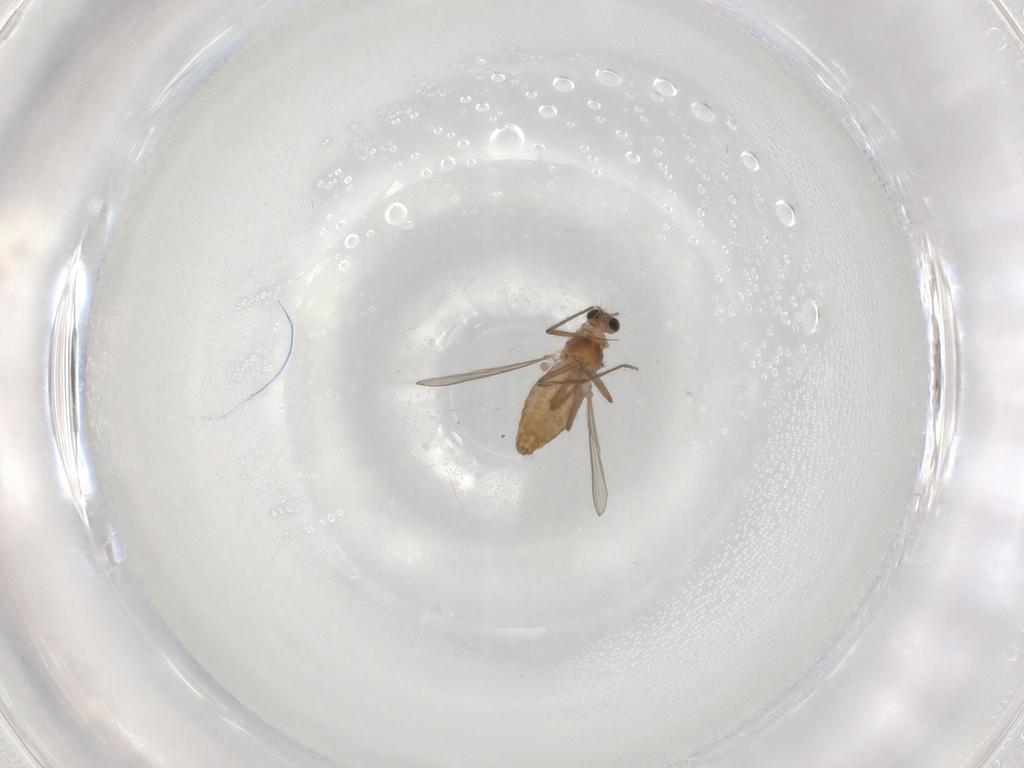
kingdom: Animalia
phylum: Arthropoda
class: Insecta
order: Diptera
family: Chironomidae
